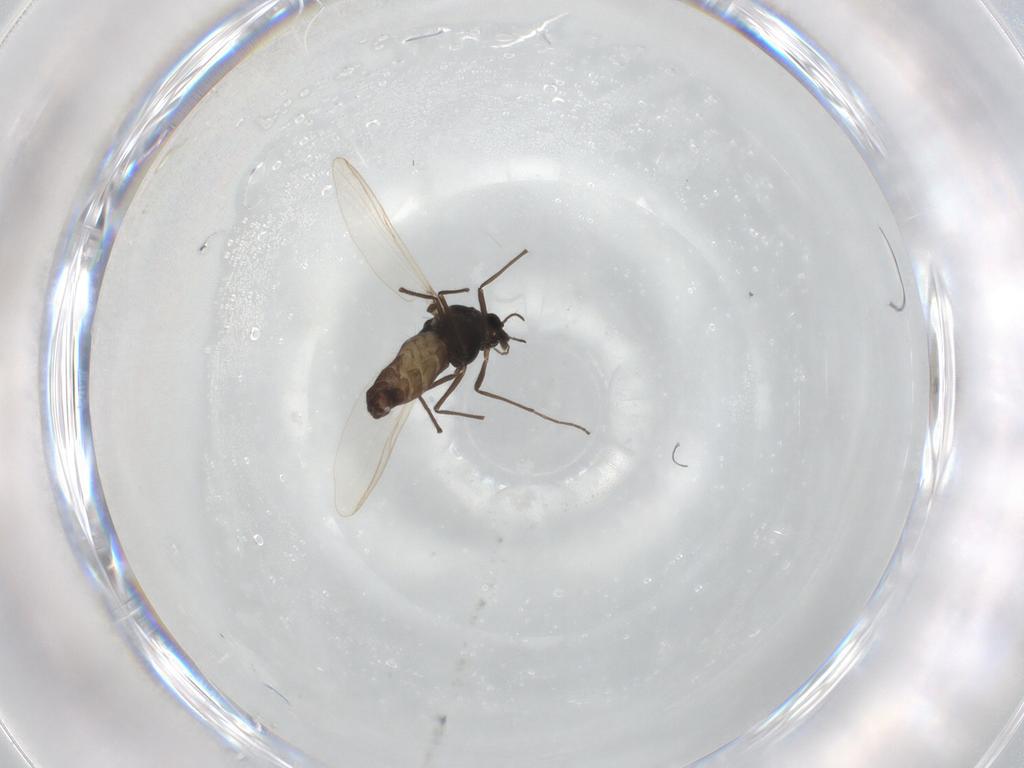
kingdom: Animalia
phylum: Arthropoda
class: Insecta
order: Diptera
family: Chironomidae
